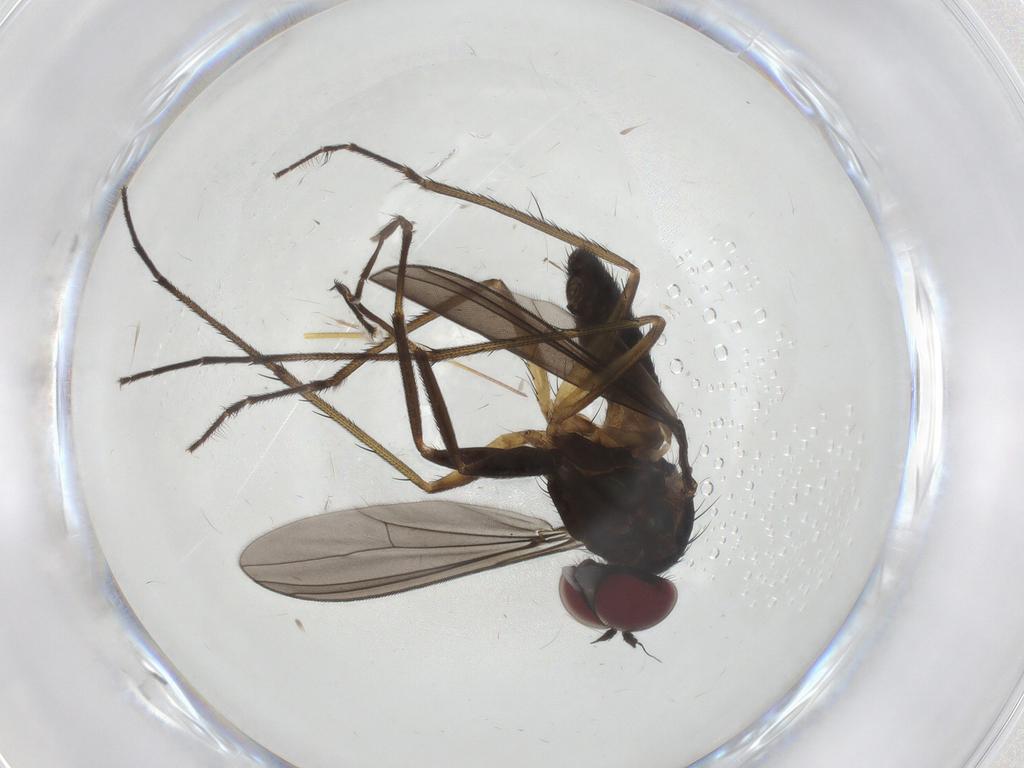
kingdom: Animalia
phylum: Arthropoda
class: Insecta
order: Diptera
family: Dolichopodidae
